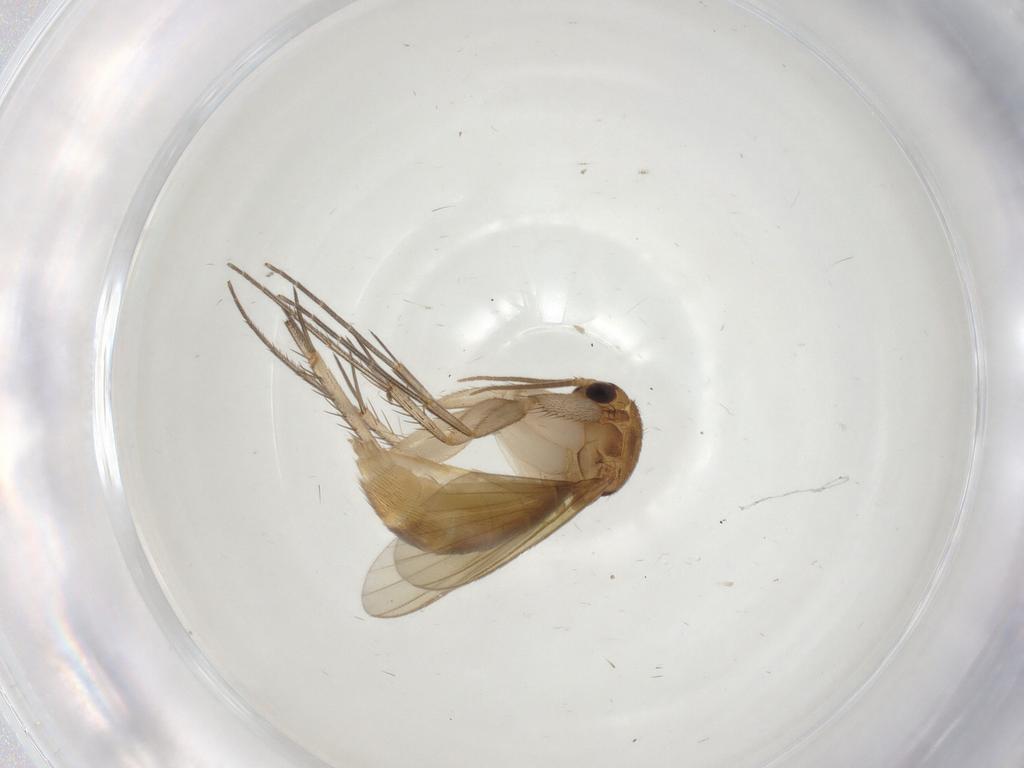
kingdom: Animalia
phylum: Arthropoda
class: Insecta
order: Diptera
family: Mycetophilidae
